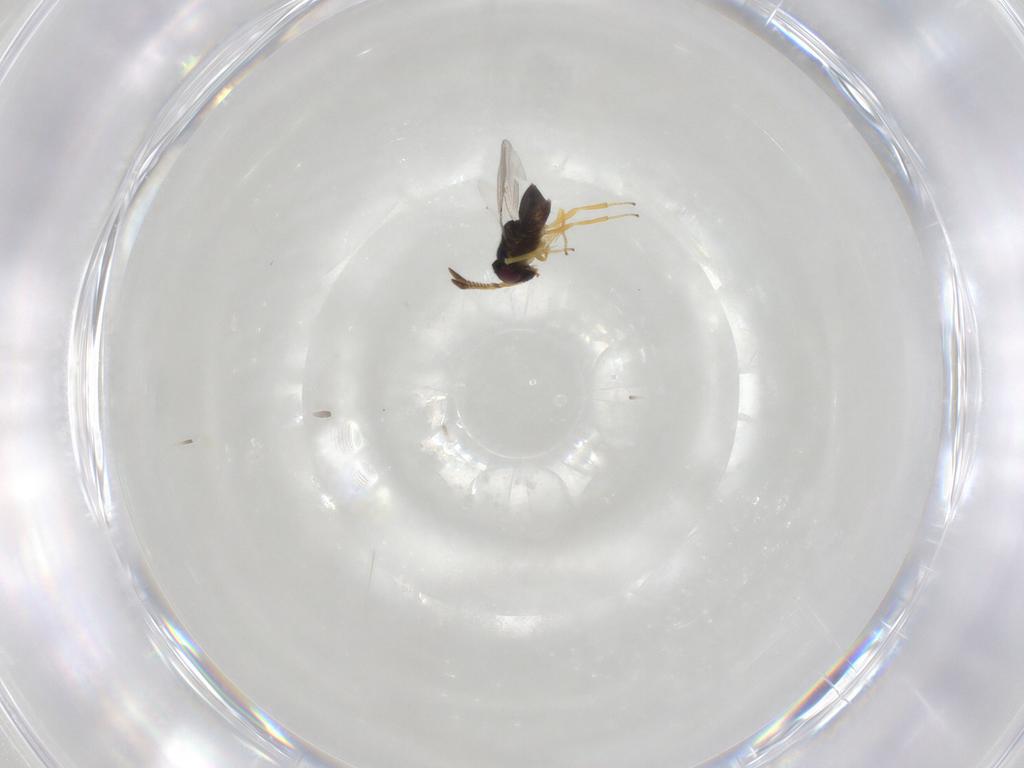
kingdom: Animalia
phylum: Arthropoda
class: Insecta
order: Hymenoptera
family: Encyrtidae
